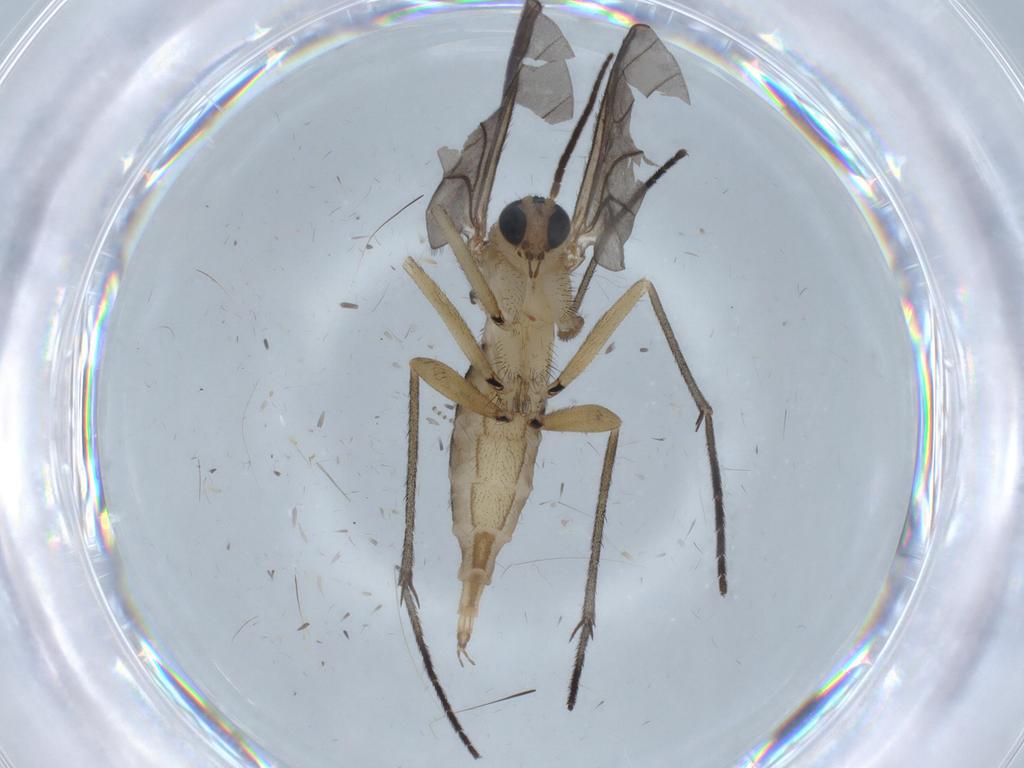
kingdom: Animalia
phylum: Arthropoda
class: Insecta
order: Diptera
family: Sciaridae
